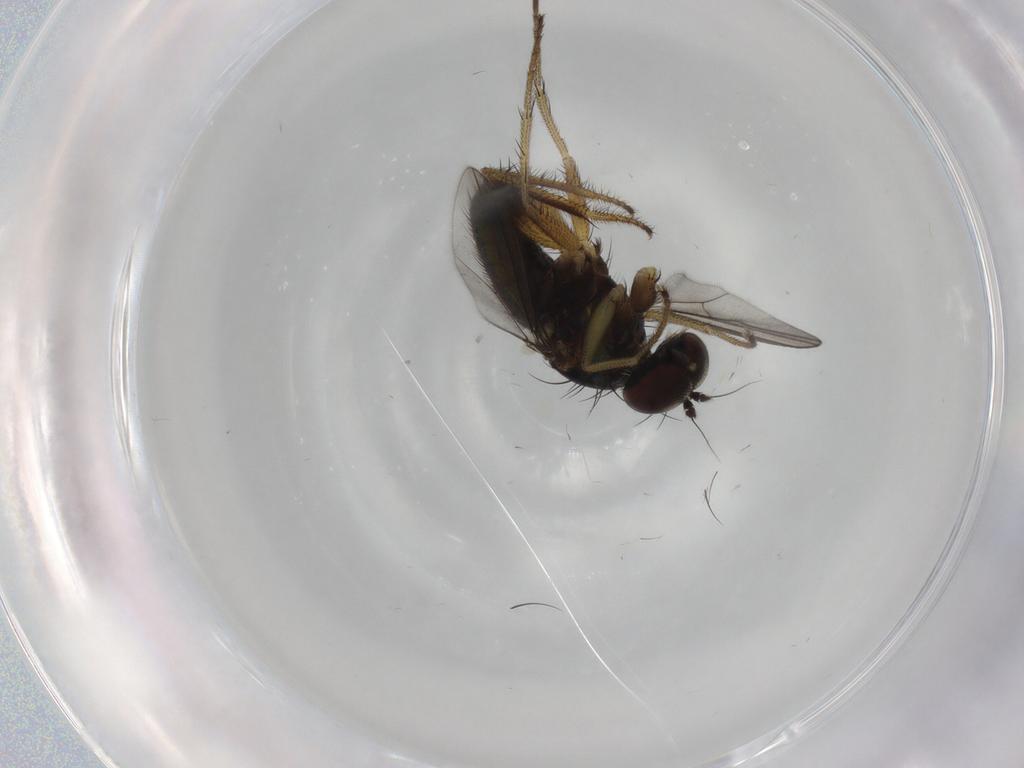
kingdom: Animalia
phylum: Arthropoda
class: Insecta
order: Diptera
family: Dolichopodidae
